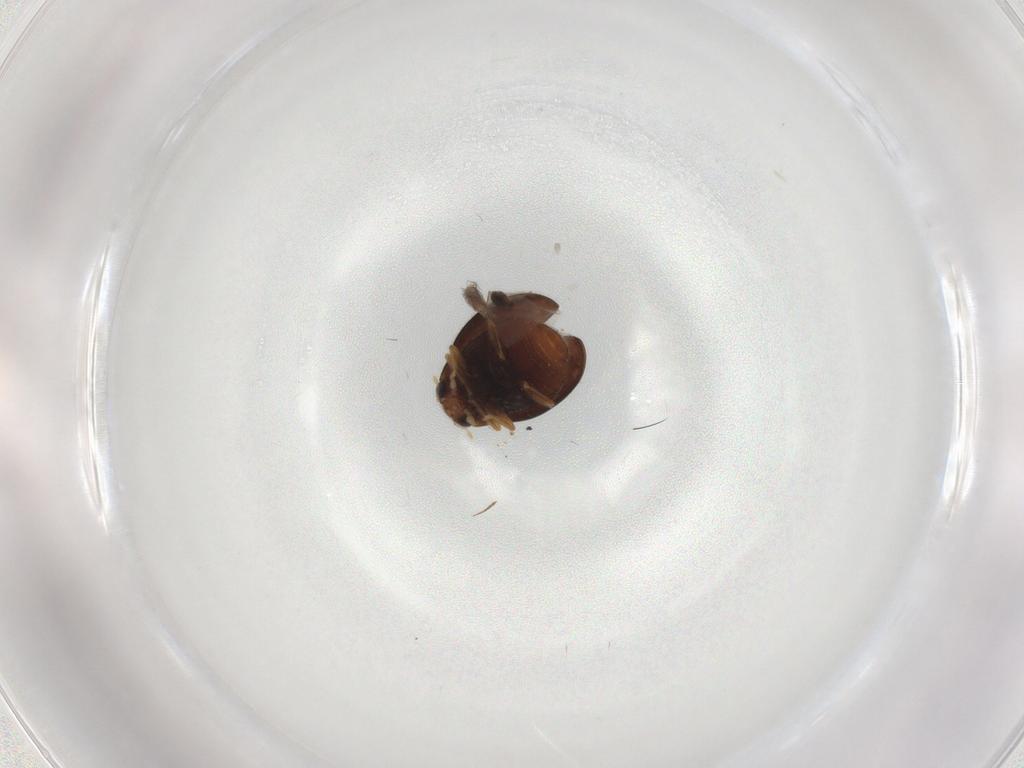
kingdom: Animalia
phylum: Arthropoda
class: Insecta
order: Coleoptera
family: Coccinellidae
